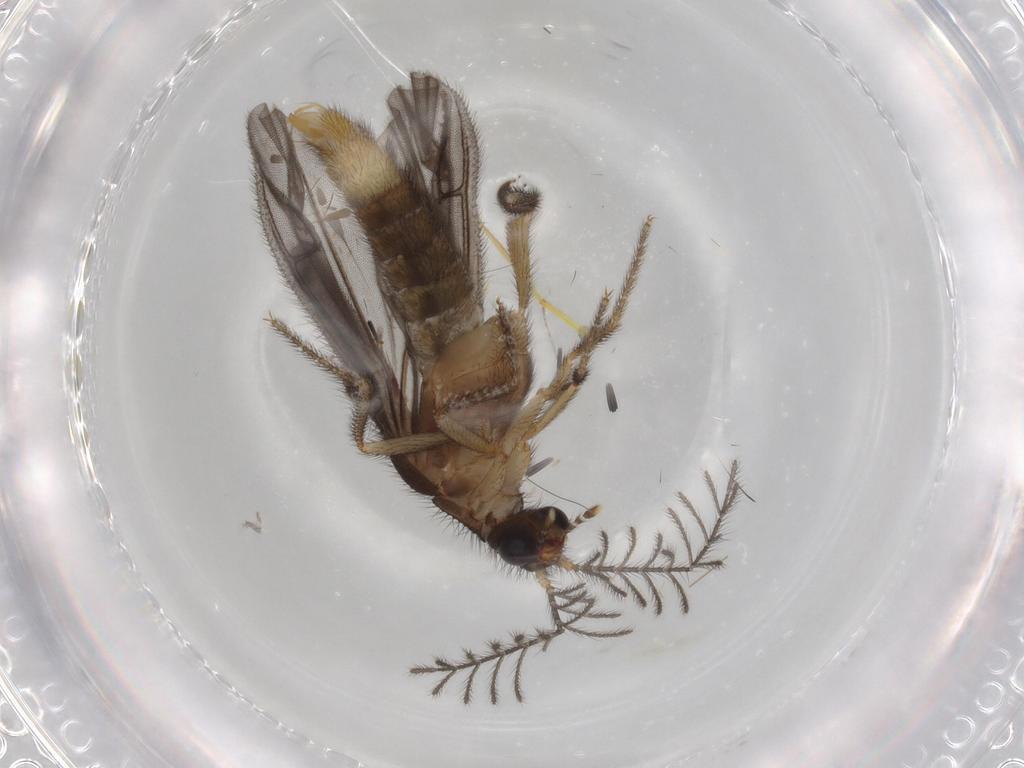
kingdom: Animalia
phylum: Arthropoda
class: Insecta
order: Coleoptera
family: Phengodidae
